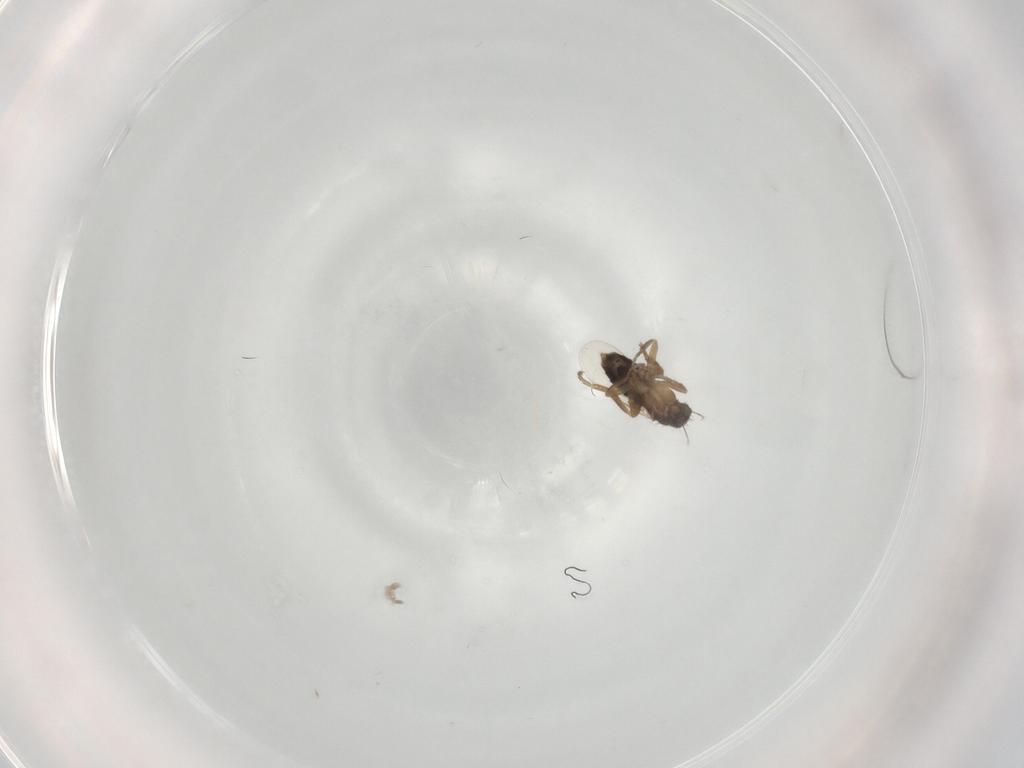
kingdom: Animalia
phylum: Arthropoda
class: Insecta
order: Diptera
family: Phoridae
